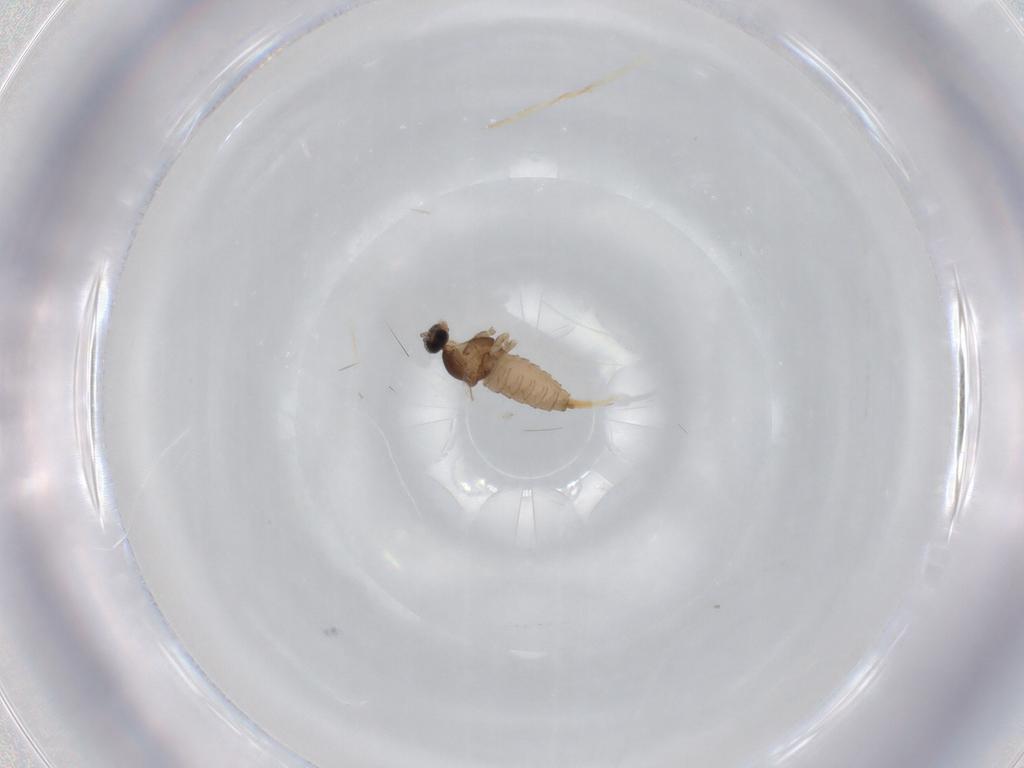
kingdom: Animalia
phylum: Arthropoda
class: Insecta
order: Diptera
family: Cecidomyiidae
